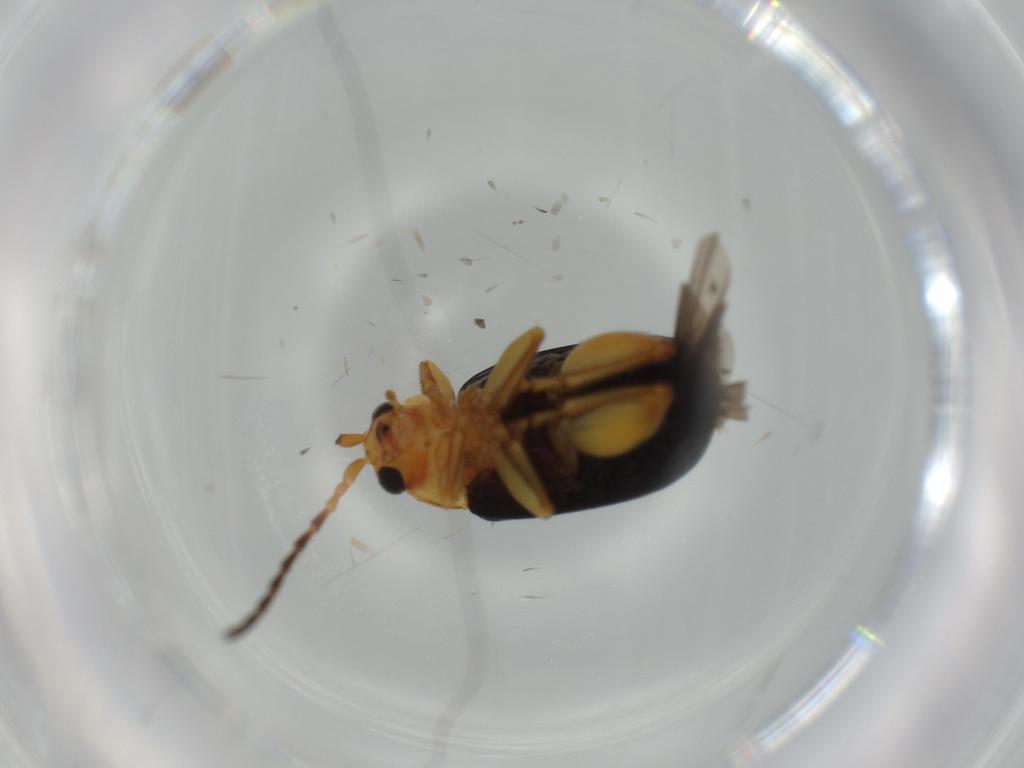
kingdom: Animalia
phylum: Arthropoda
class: Insecta
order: Coleoptera
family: Chrysomelidae
